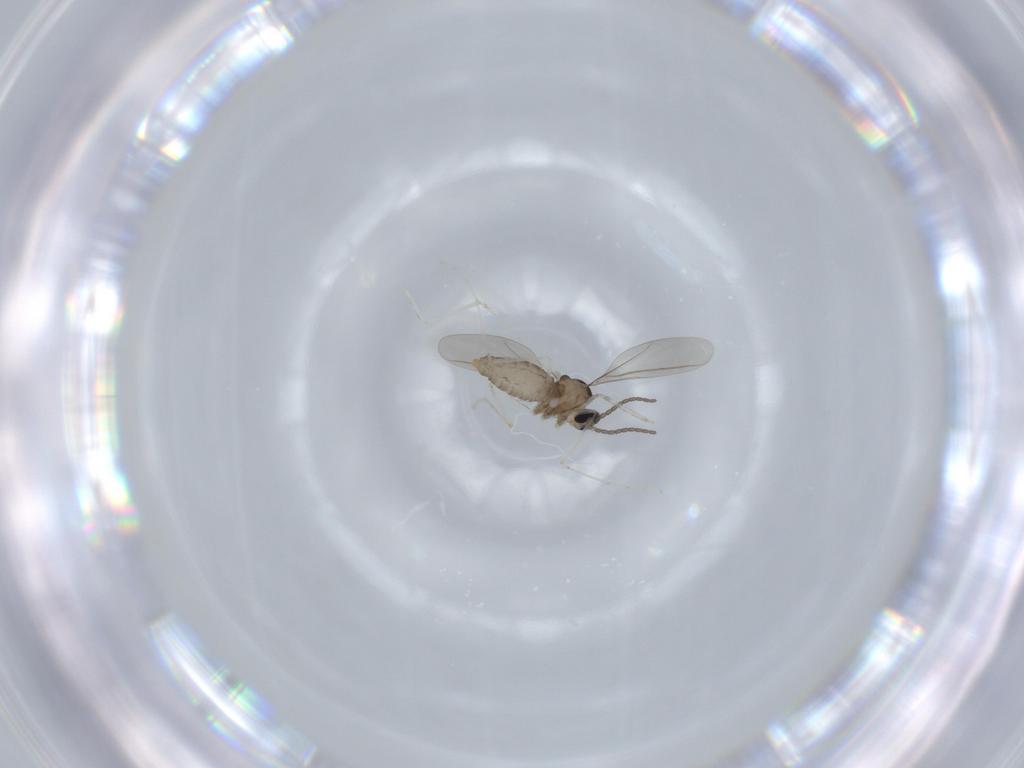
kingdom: Animalia
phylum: Arthropoda
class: Insecta
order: Diptera
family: Cecidomyiidae
